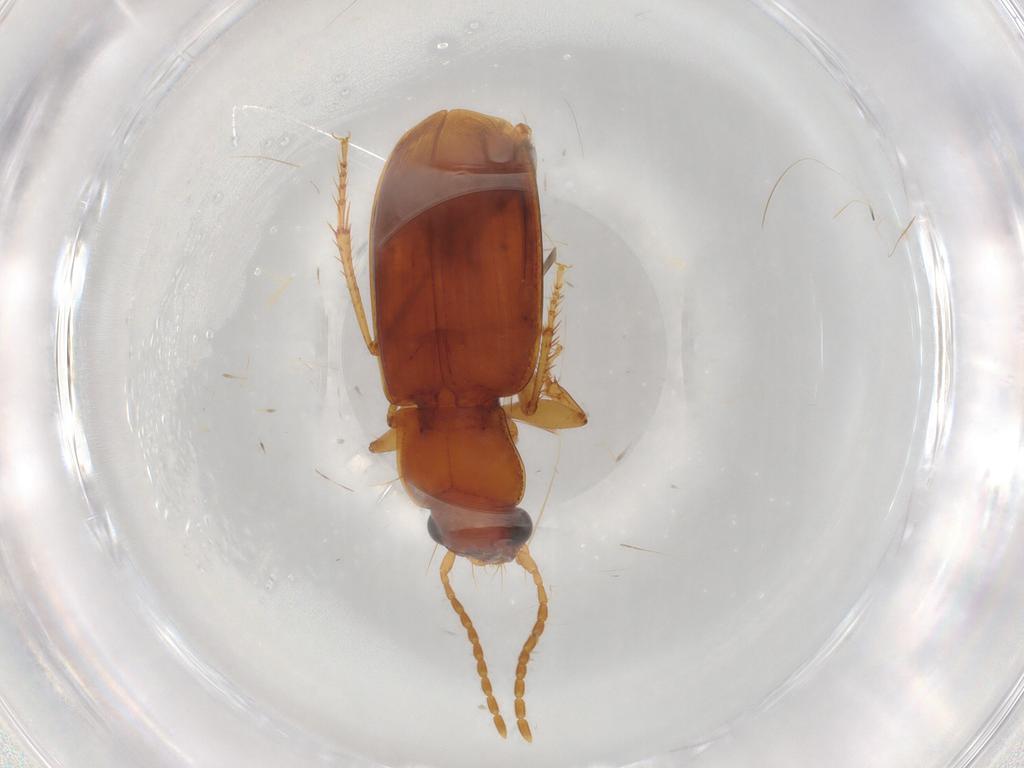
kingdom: Animalia
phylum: Arthropoda
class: Insecta
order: Coleoptera
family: Carabidae
